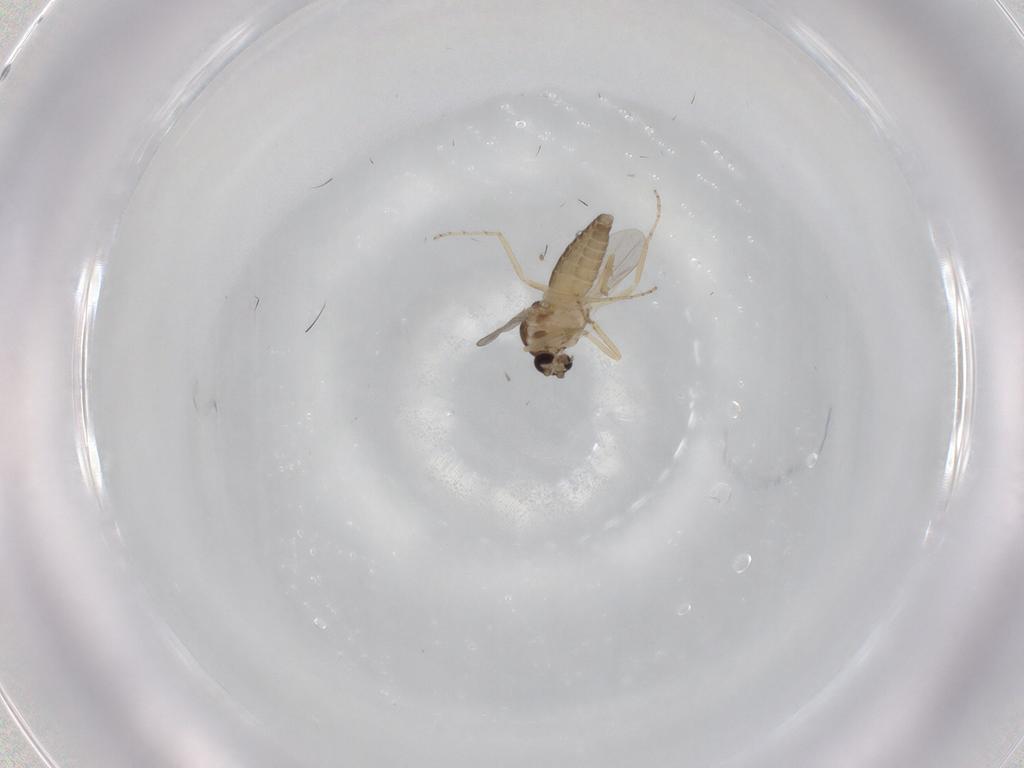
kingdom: Animalia
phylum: Arthropoda
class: Insecta
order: Diptera
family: Ceratopogonidae
